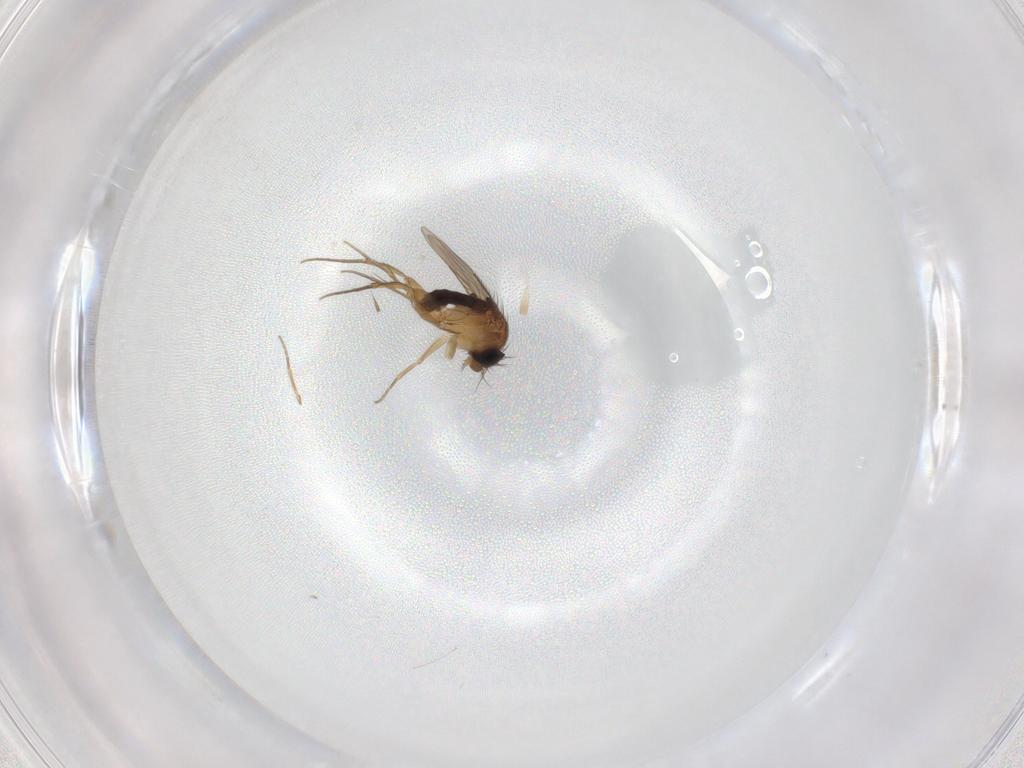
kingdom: Animalia
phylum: Arthropoda
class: Insecta
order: Diptera
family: Phoridae
